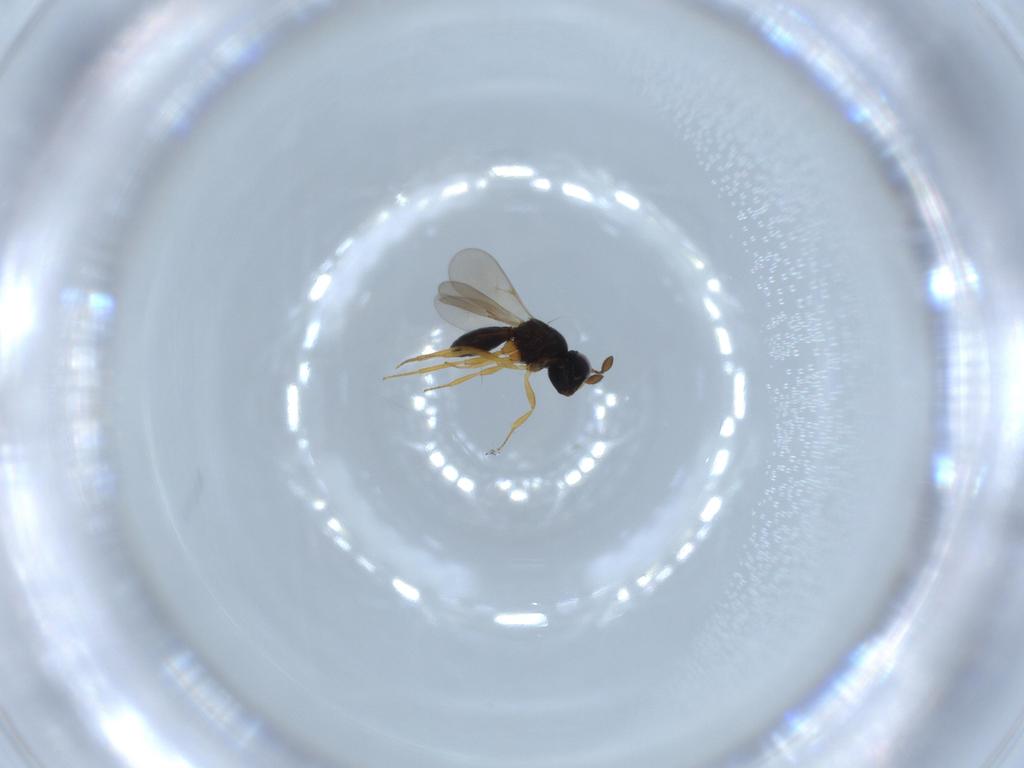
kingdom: Animalia
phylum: Arthropoda
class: Insecta
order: Hymenoptera
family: Scelionidae
